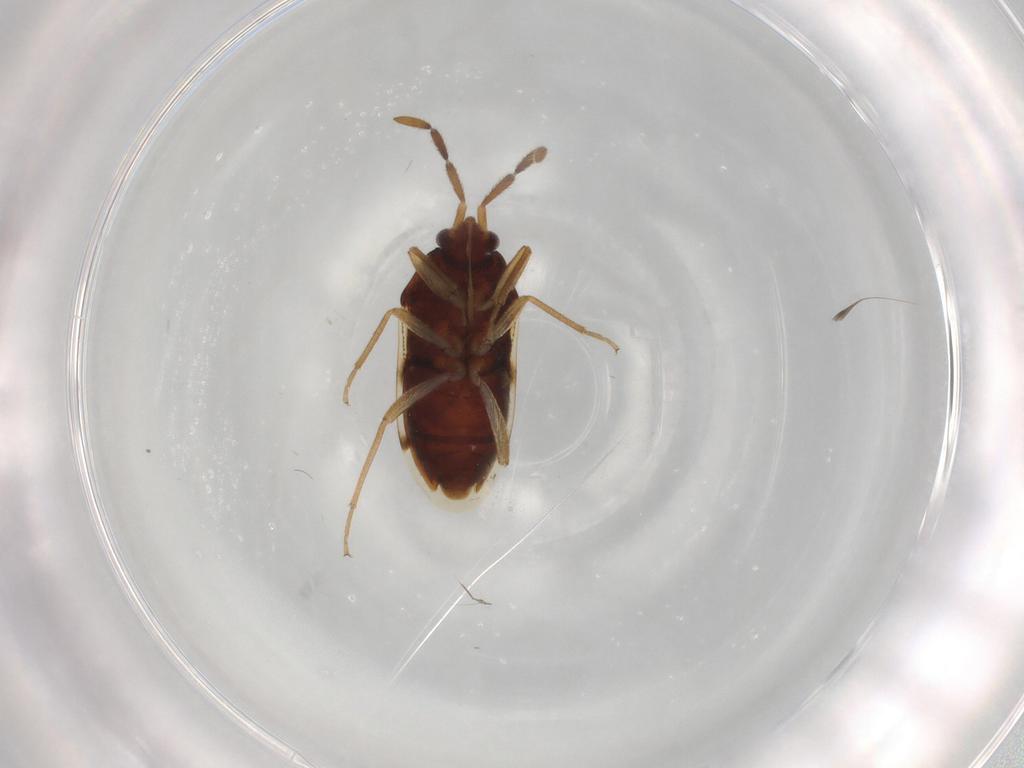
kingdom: Animalia
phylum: Arthropoda
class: Insecta
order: Hemiptera
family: Rhyparochromidae
